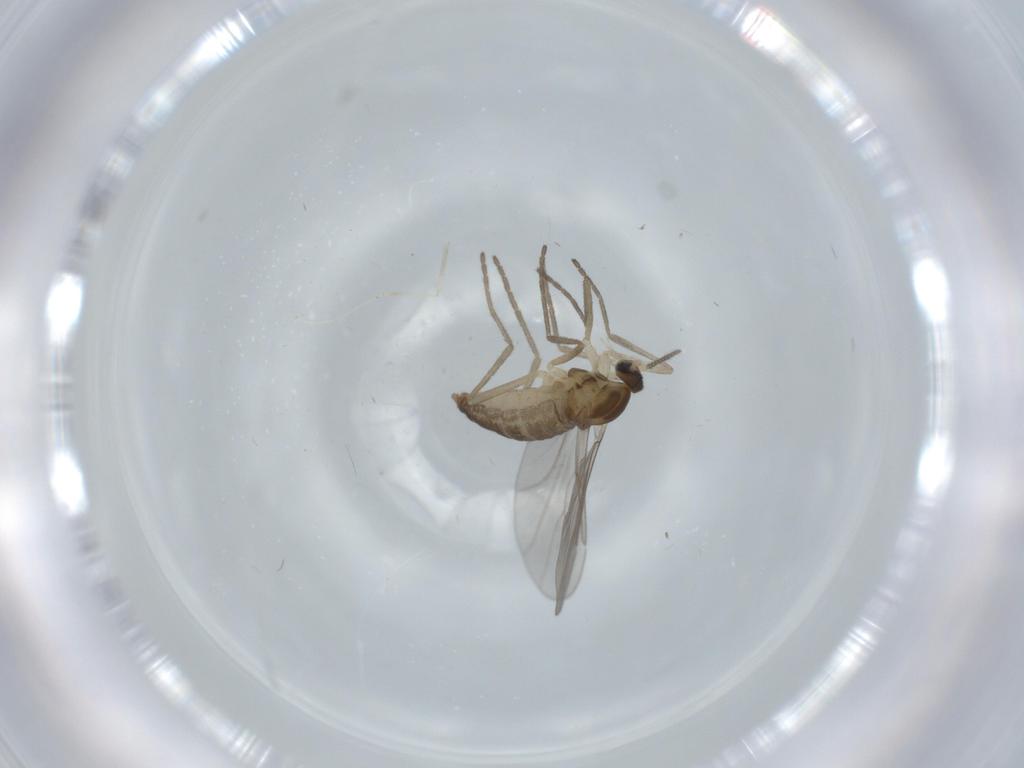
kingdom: Animalia
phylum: Arthropoda
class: Insecta
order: Diptera
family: Cecidomyiidae
